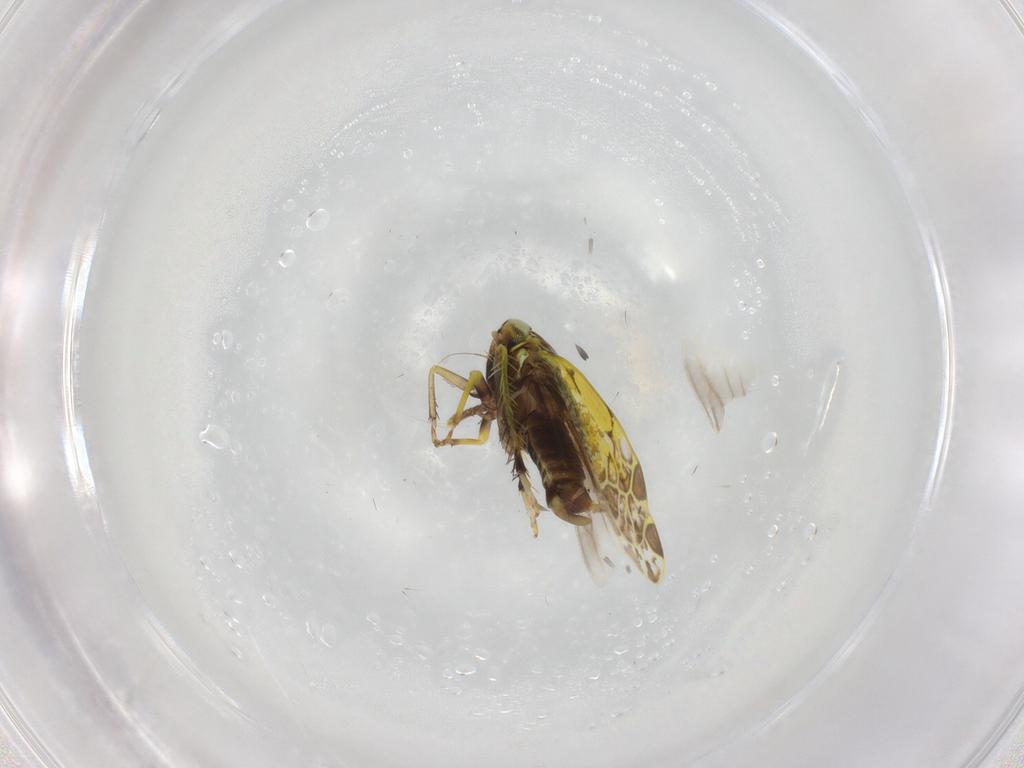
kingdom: Animalia
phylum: Arthropoda
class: Insecta
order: Hemiptera
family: Cicadellidae
